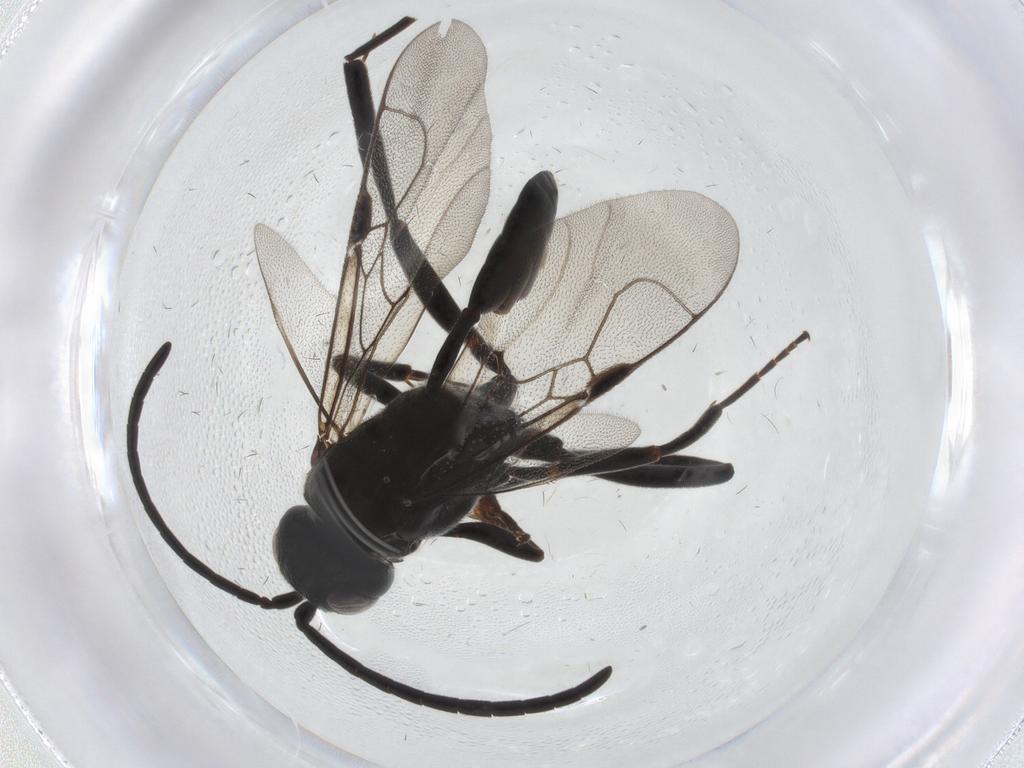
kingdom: Animalia
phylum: Arthropoda
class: Insecta
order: Hymenoptera
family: Evaniidae
